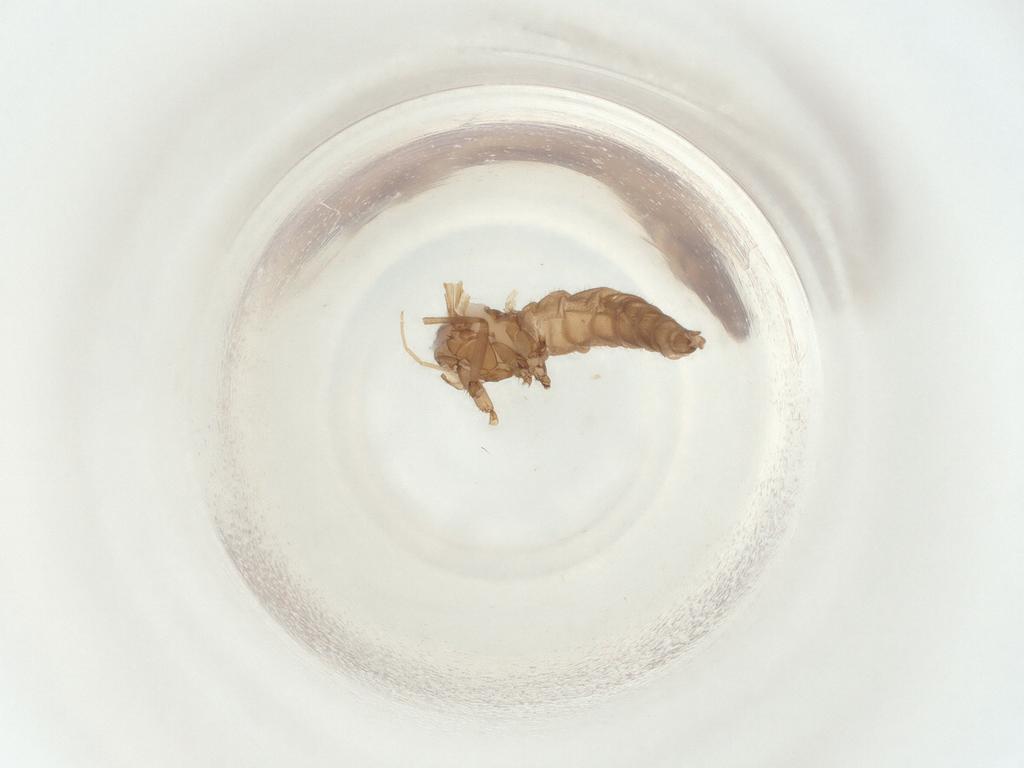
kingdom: Animalia
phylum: Arthropoda
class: Insecta
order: Diptera
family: Sciaridae
